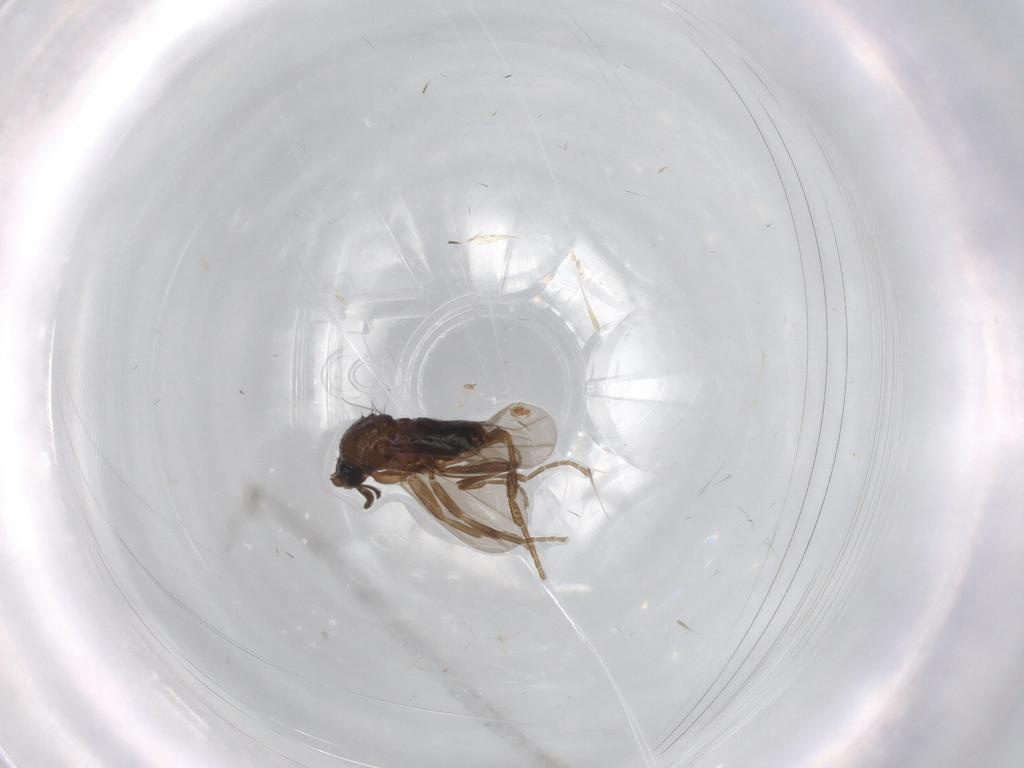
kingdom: Animalia
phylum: Arthropoda
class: Insecta
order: Diptera
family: Phoridae
